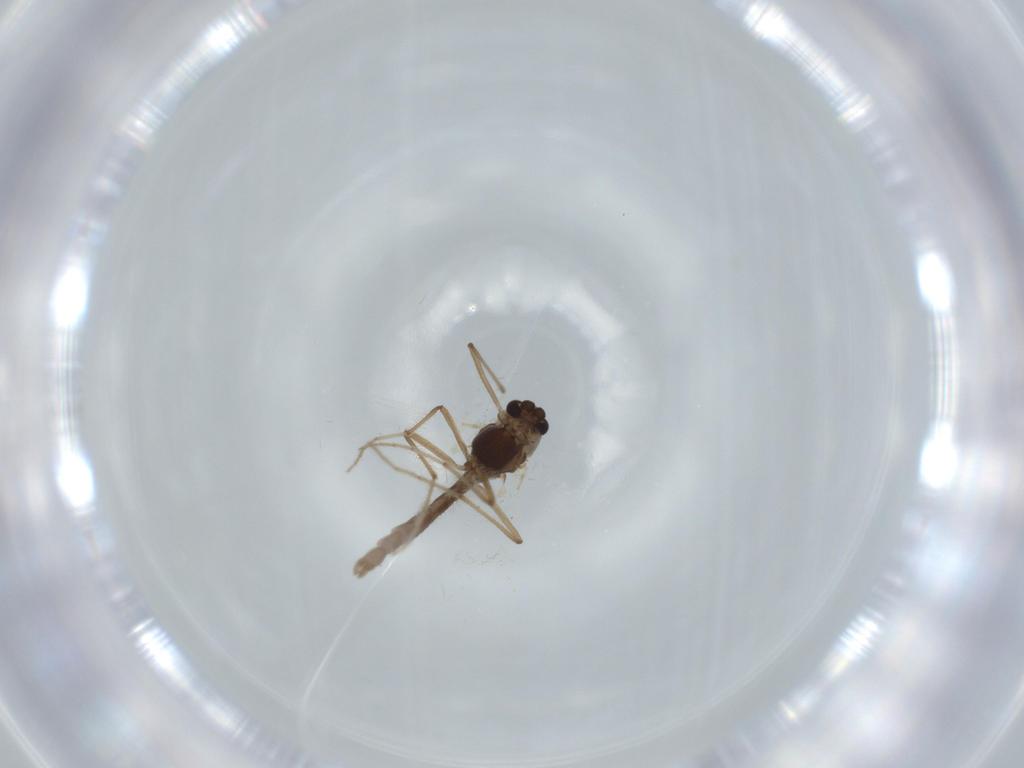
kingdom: Animalia
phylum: Arthropoda
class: Insecta
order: Diptera
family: Chironomidae
